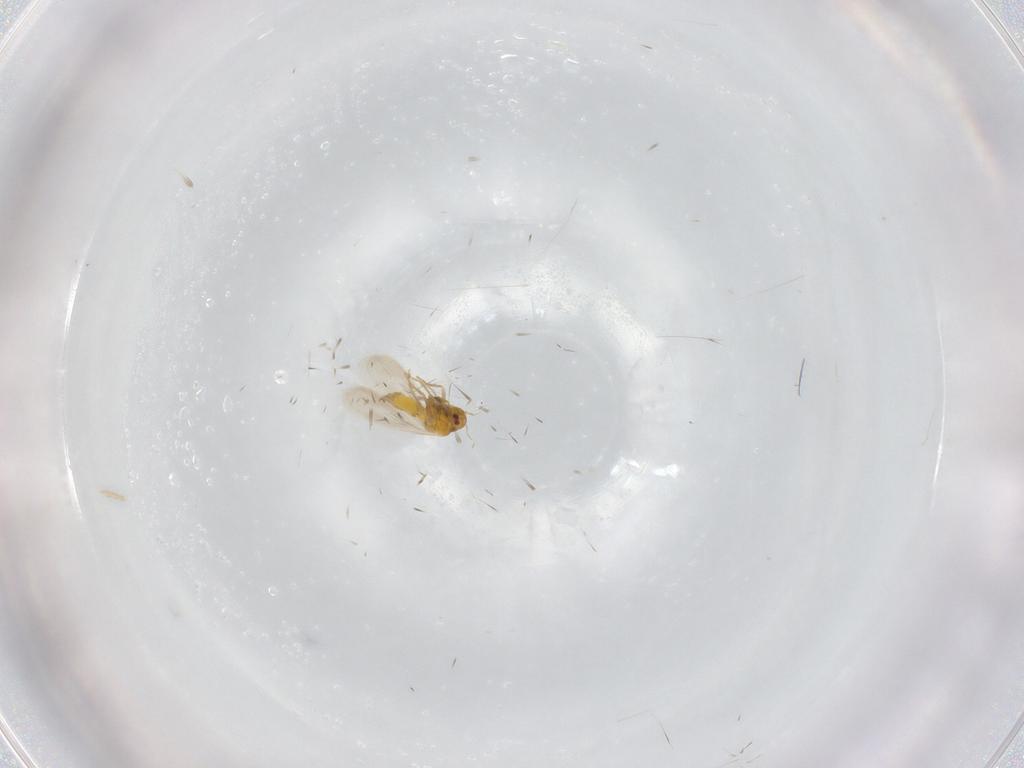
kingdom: Animalia
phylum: Arthropoda
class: Insecta
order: Hemiptera
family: Aleyrodidae
